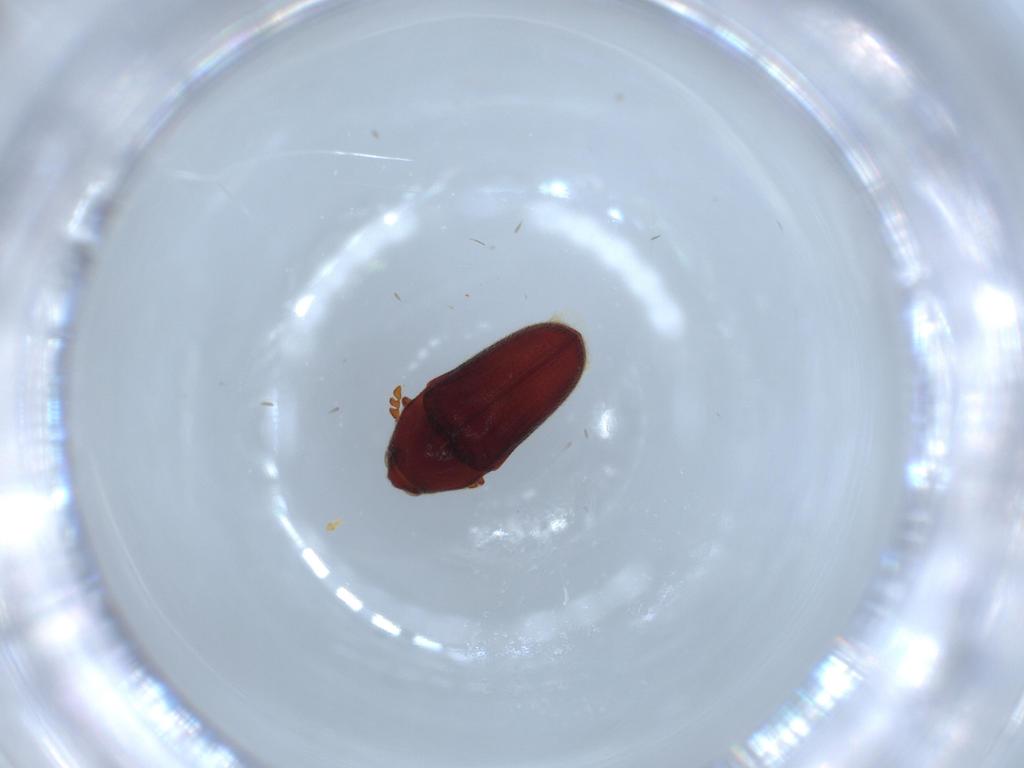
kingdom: Animalia
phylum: Arthropoda
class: Insecta
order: Coleoptera
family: Throscidae
